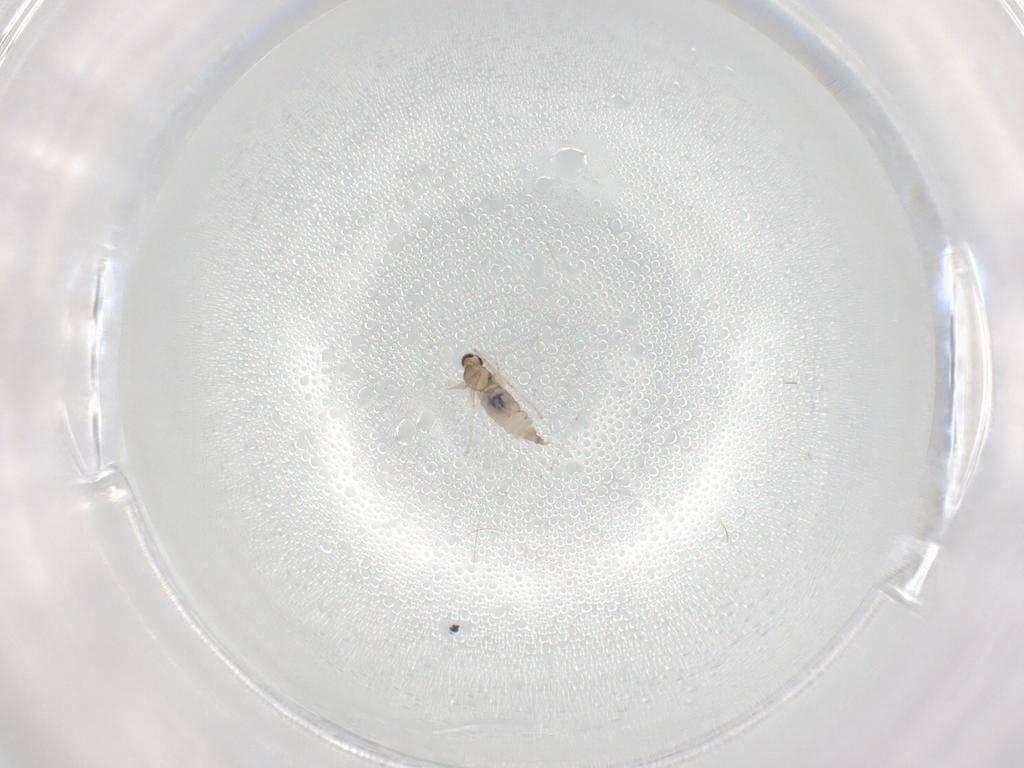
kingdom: Animalia
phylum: Arthropoda
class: Insecta
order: Diptera
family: Cecidomyiidae
